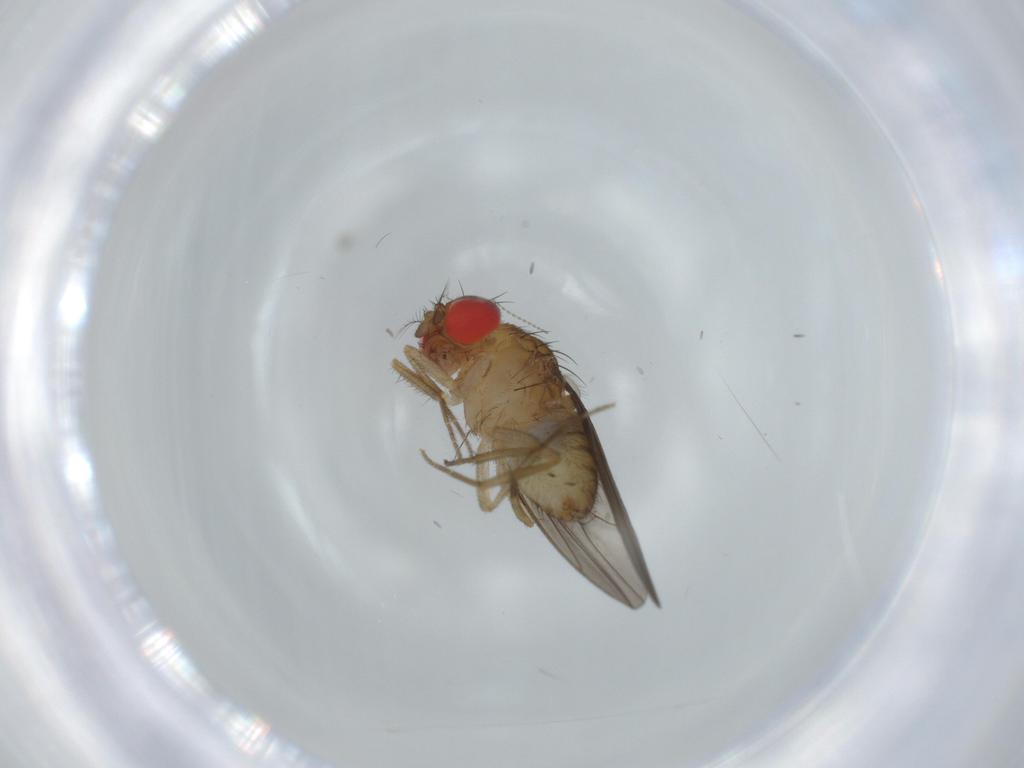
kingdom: Animalia
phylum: Arthropoda
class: Insecta
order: Diptera
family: Drosophilidae
